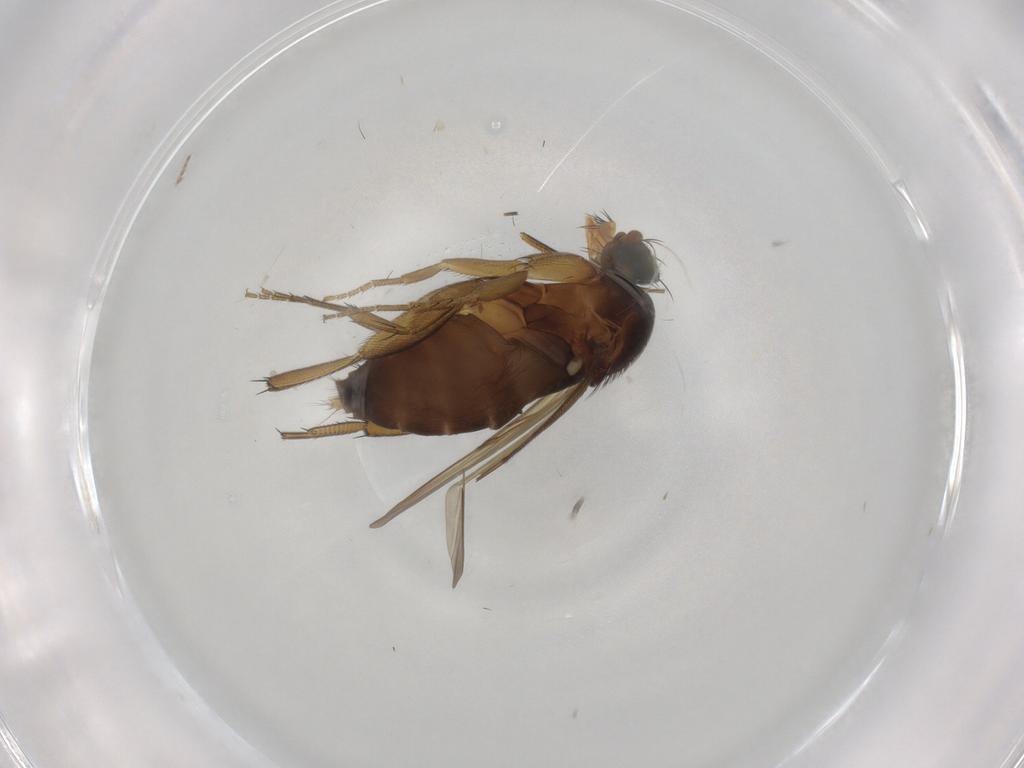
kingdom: Animalia
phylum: Arthropoda
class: Insecta
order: Diptera
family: Phoridae
